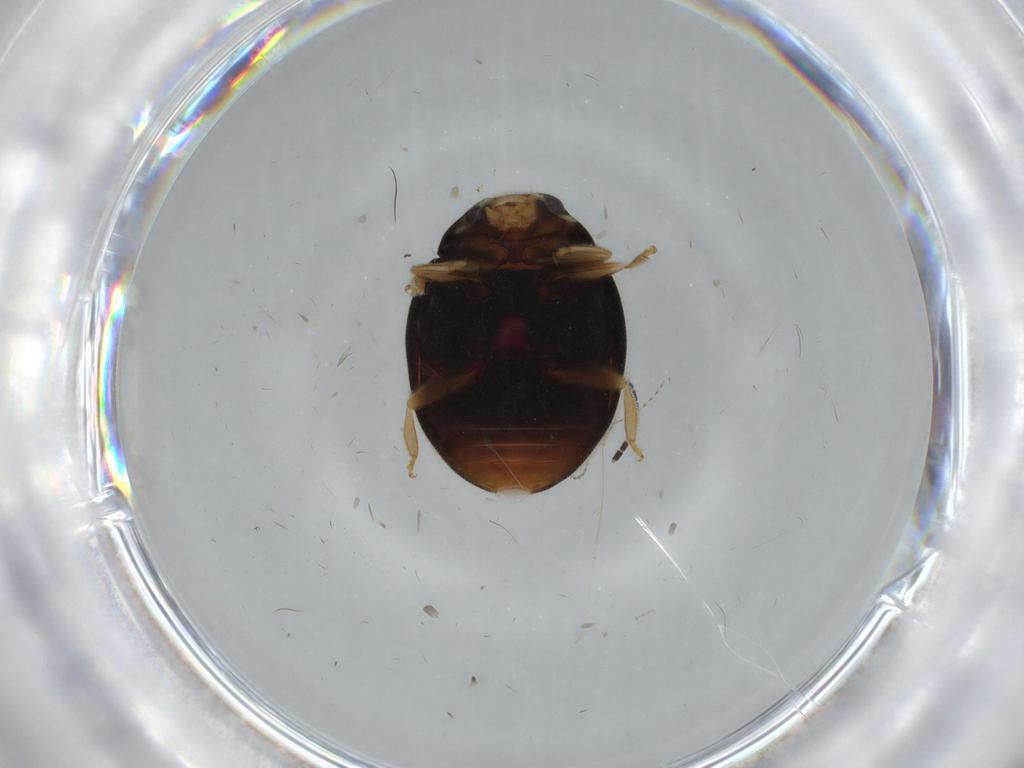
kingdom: Animalia
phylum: Arthropoda
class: Insecta
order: Coleoptera
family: Coccinellidae
